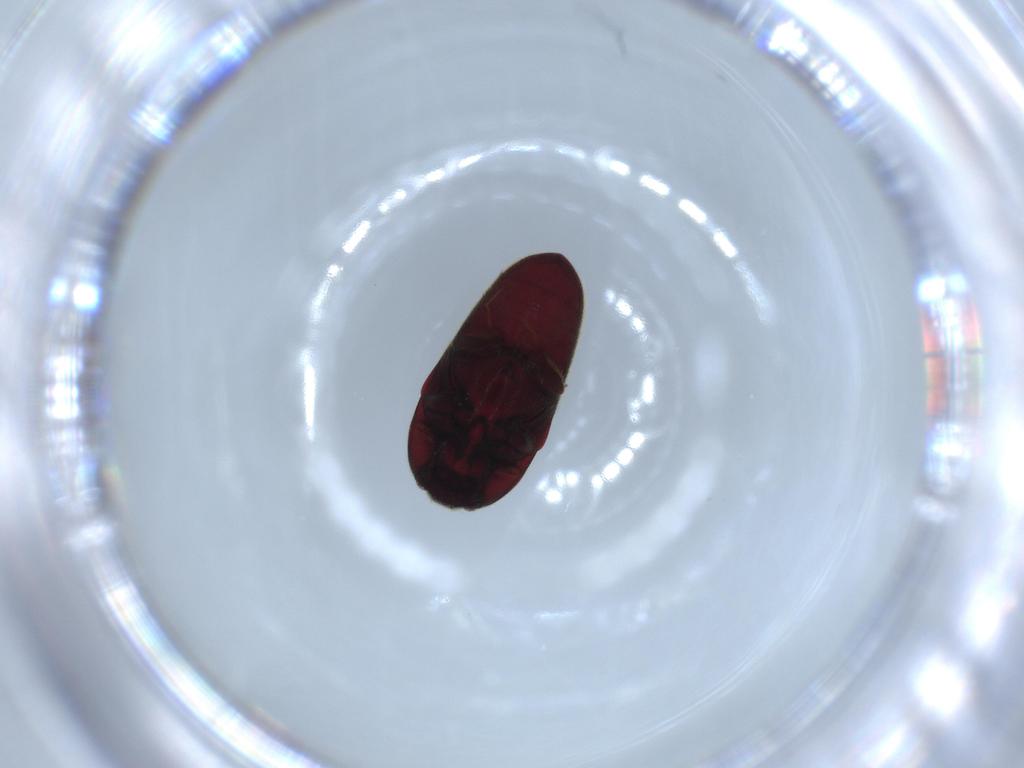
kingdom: Animalia
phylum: Arthropoda
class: Insecta
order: Coleoptera
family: Throscidae
